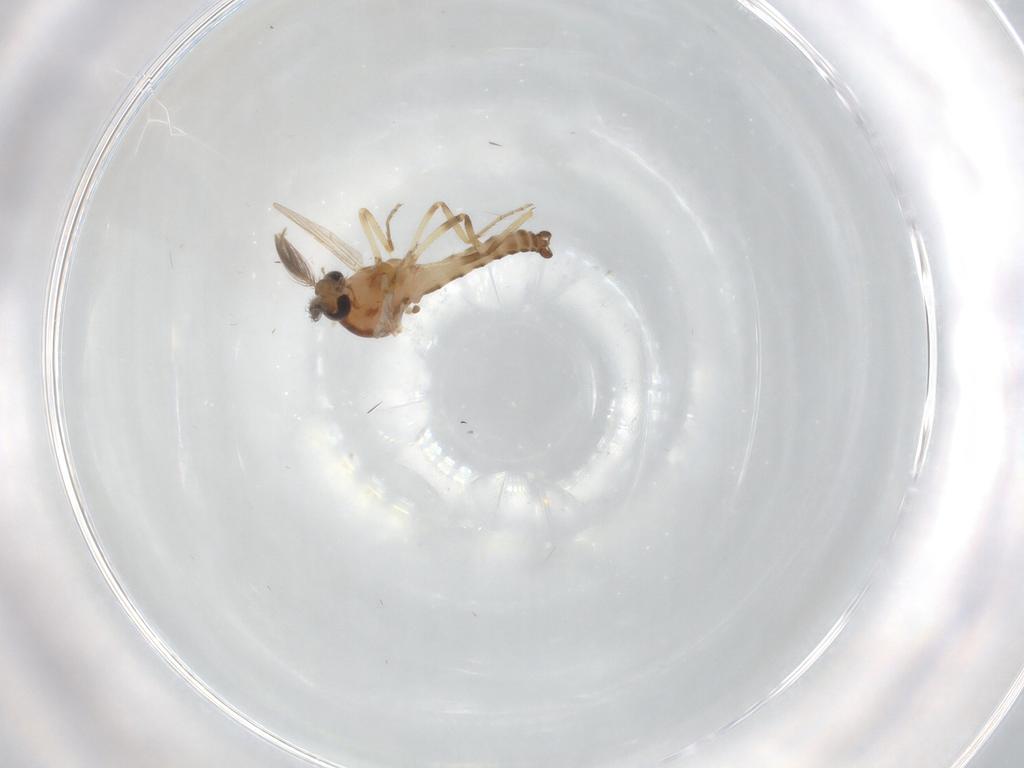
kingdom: Animalia
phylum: Arthropoda
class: Insecta
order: Diptera
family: Ceratopogonidae
